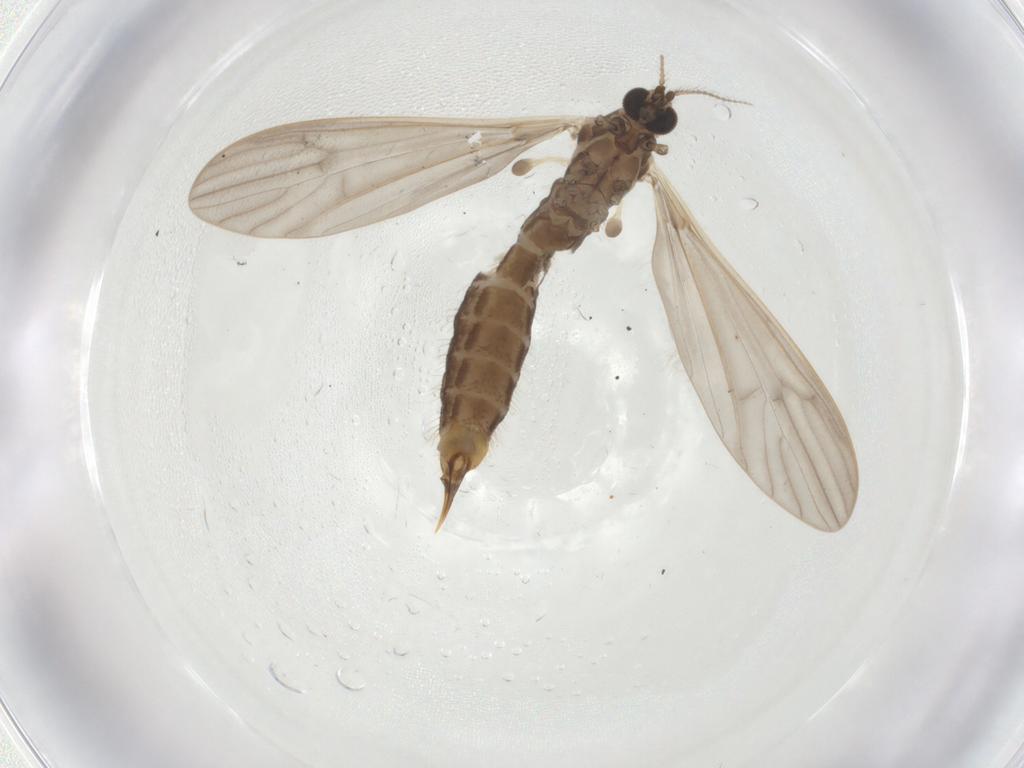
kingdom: Animalia
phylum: Arthropoda
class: Insecta
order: Diptera
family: Limoniidae
